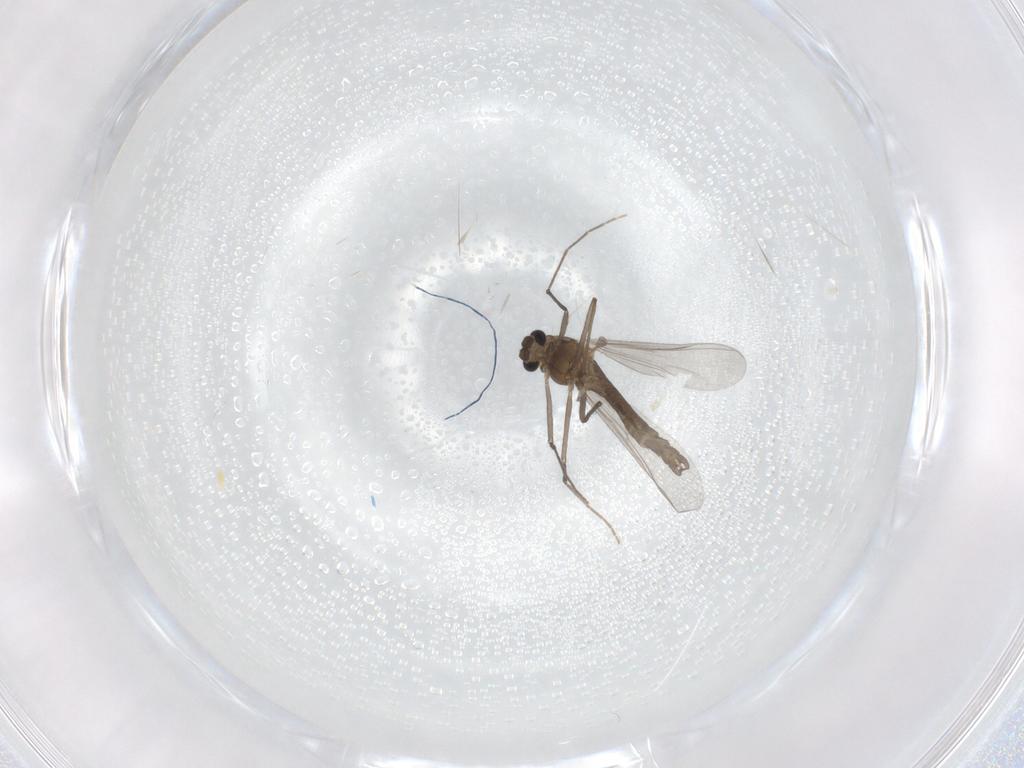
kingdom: Animalia
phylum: Arthropoda
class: Insecta
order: Diptera
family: Chironomidae
